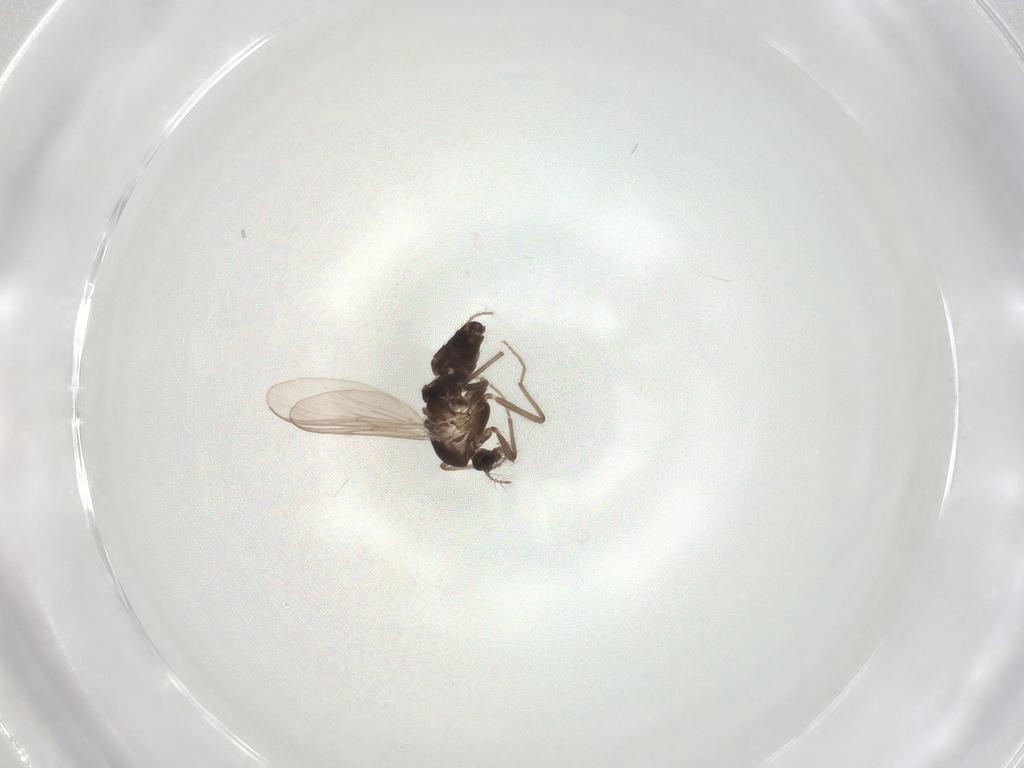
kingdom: Animalia
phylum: Arthropoda
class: Insecta
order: Diptera
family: Chironomidae
